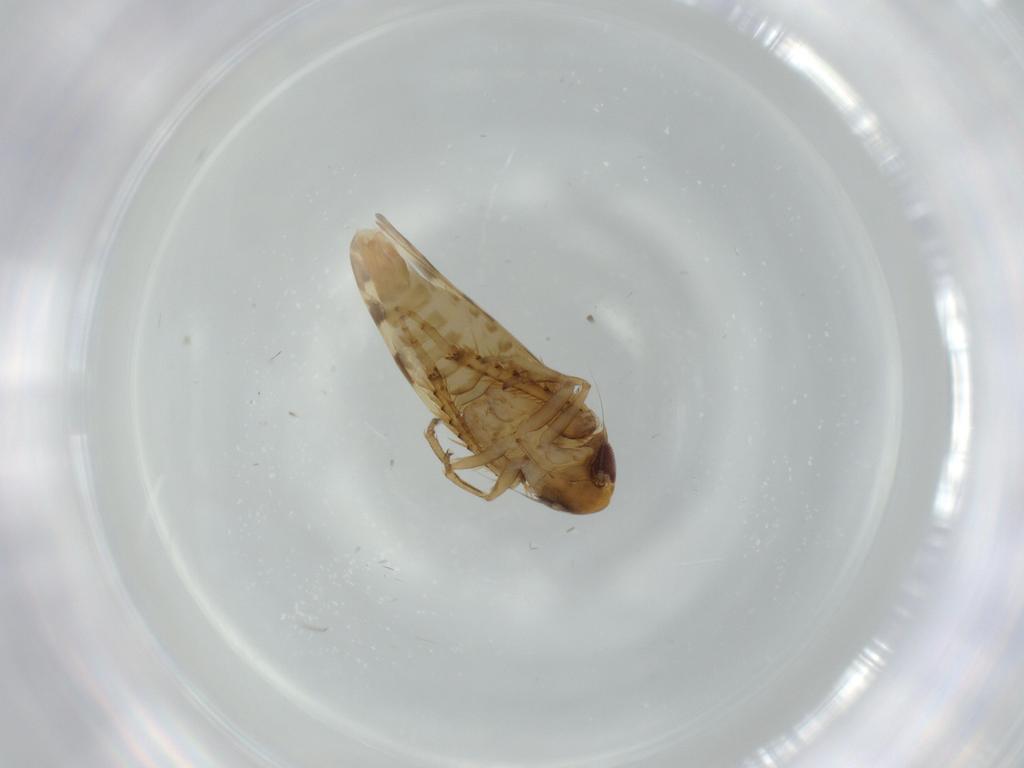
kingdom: Animalia
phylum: Arthropoda
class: Insecta
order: Hemiptera
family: Cicadellidae
